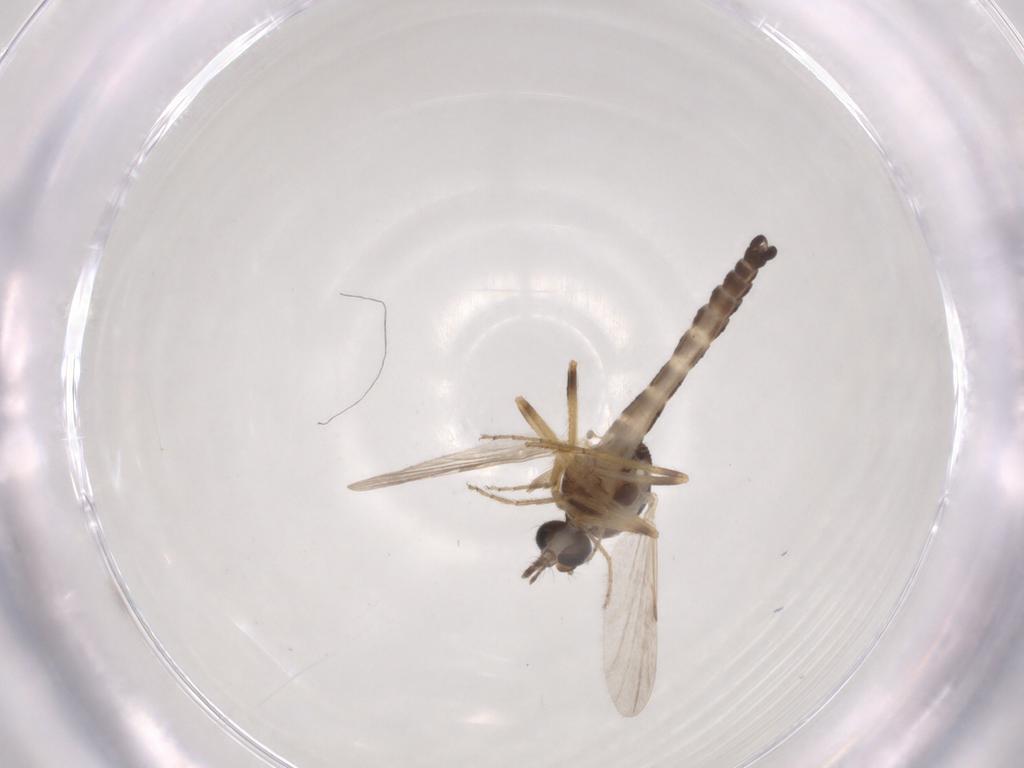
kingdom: Animalia
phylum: Arthropoda
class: Insecta
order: Diptera
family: Ceratopogonidae
